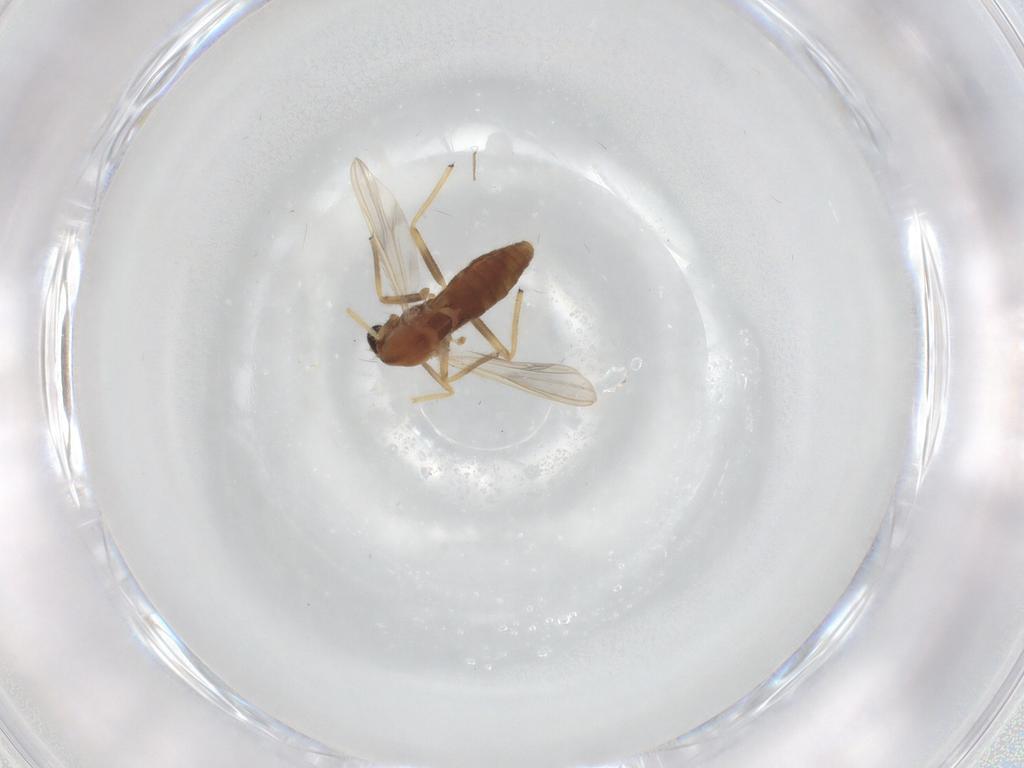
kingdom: Animalia
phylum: Arthropoda
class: Insecta
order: Diptera
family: Chironomidae
